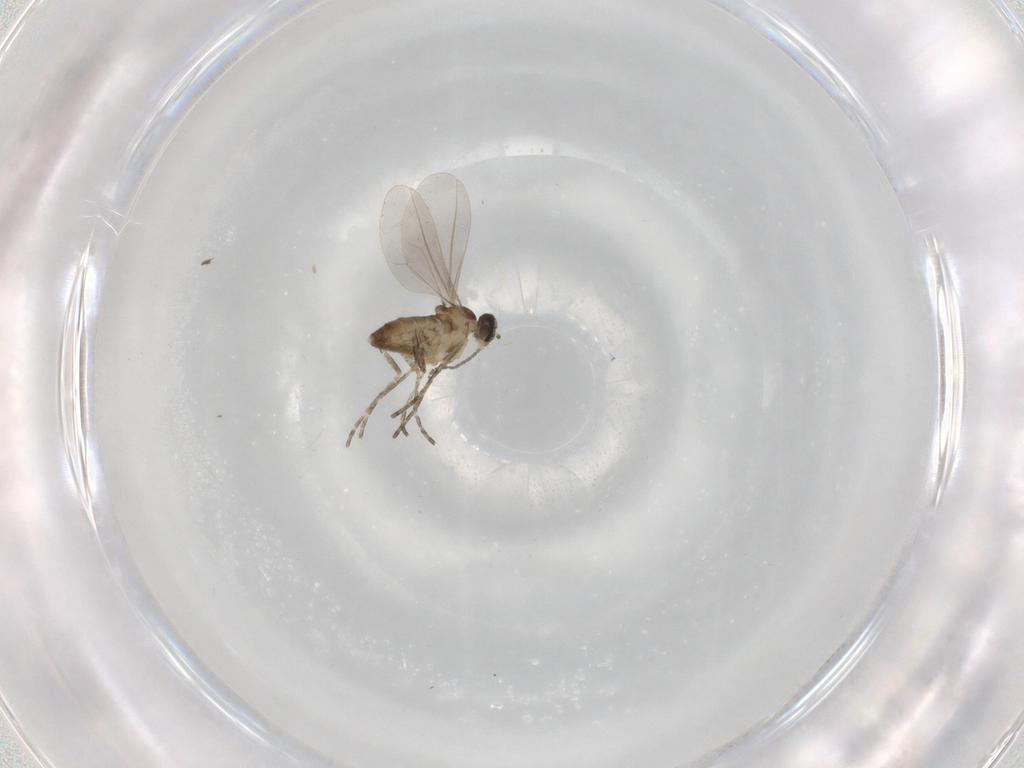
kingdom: Animalia
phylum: Arthropoda
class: Insecta
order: Diptera
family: Cecidomyiidae
